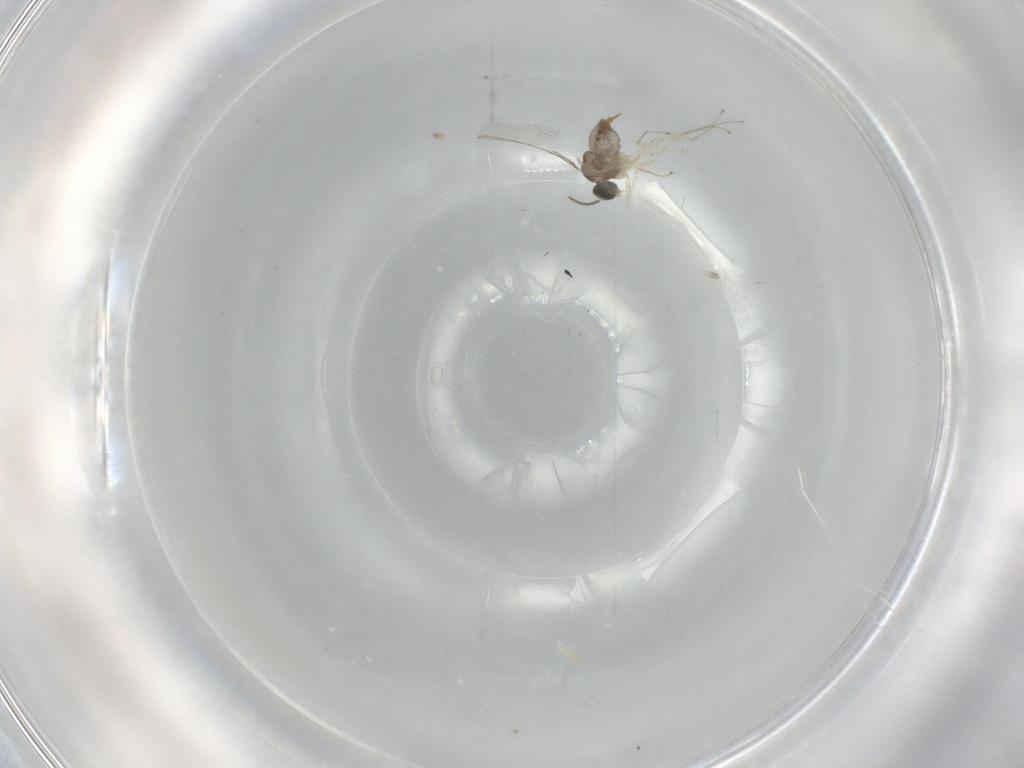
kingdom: Animalia
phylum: Arthropoda
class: Insecta
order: Diptera
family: Cecidomyiidae
